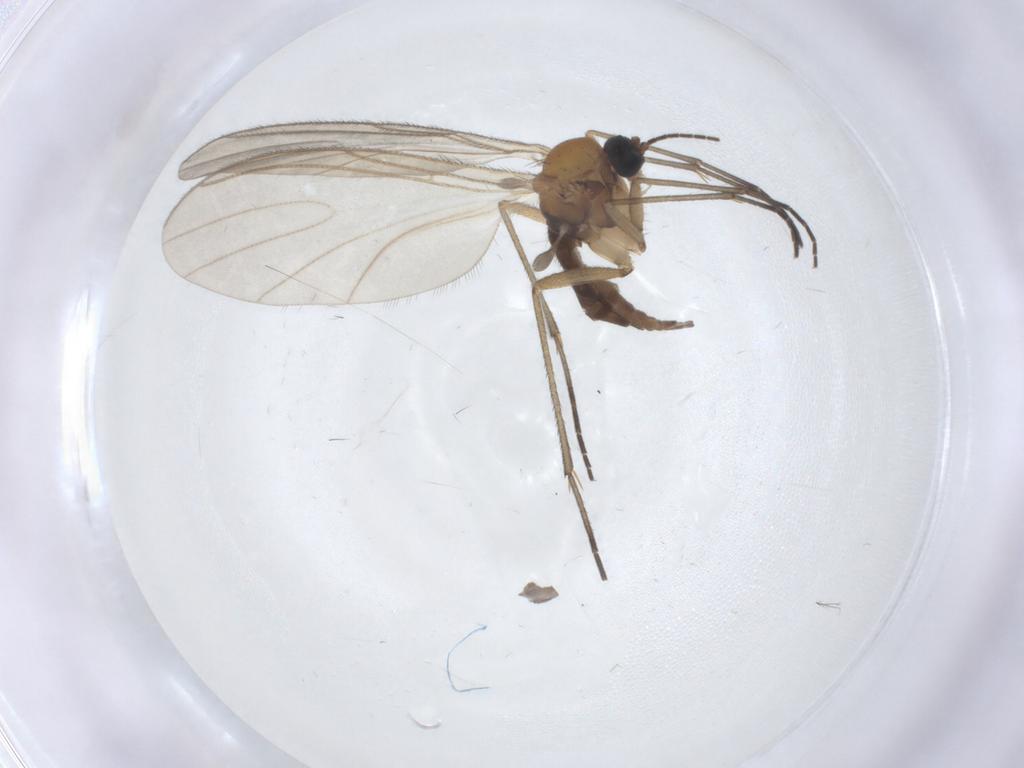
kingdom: Animalia
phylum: Arthropoda
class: Insecta
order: Diptera
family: Sciaridae
